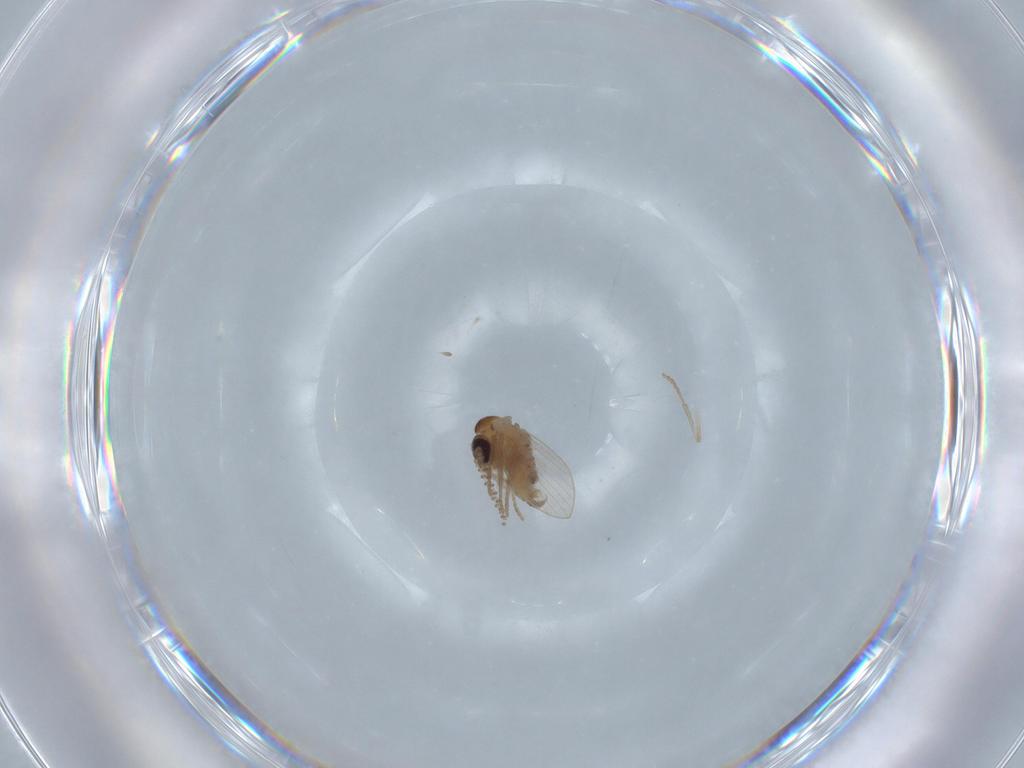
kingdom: Animalia
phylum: Arthropoda
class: Insecta
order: Diptera
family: Psychodidae
